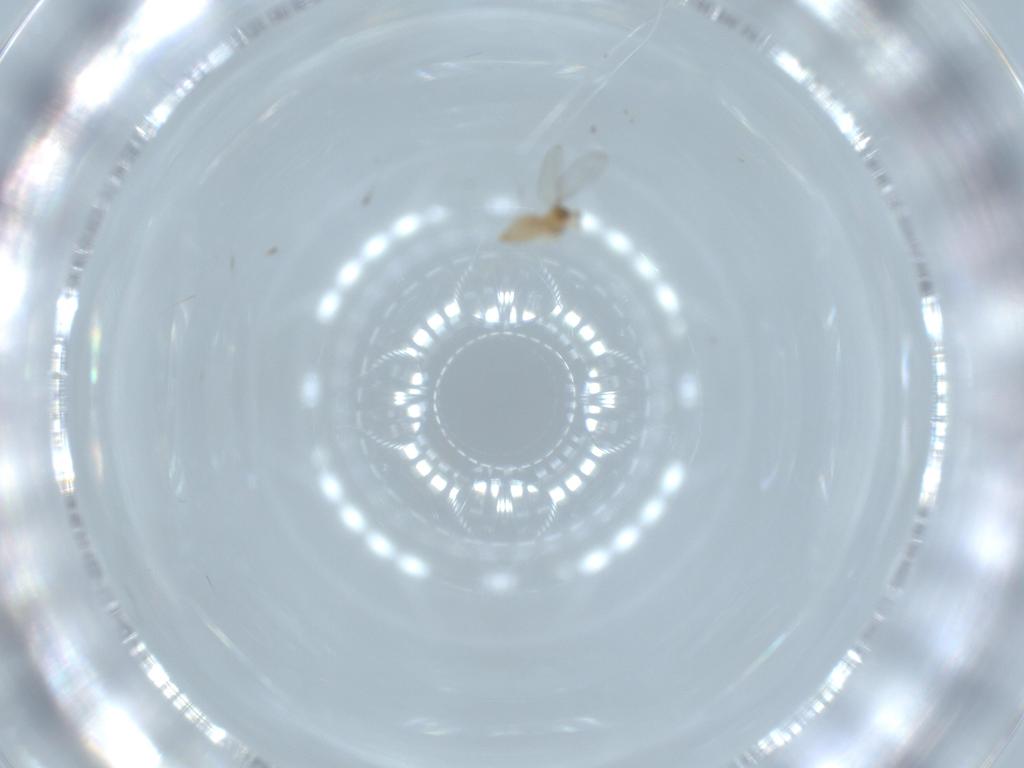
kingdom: Animalia
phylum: Arthropoda
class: Insecta
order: Diptera
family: Cecidomyiidae
